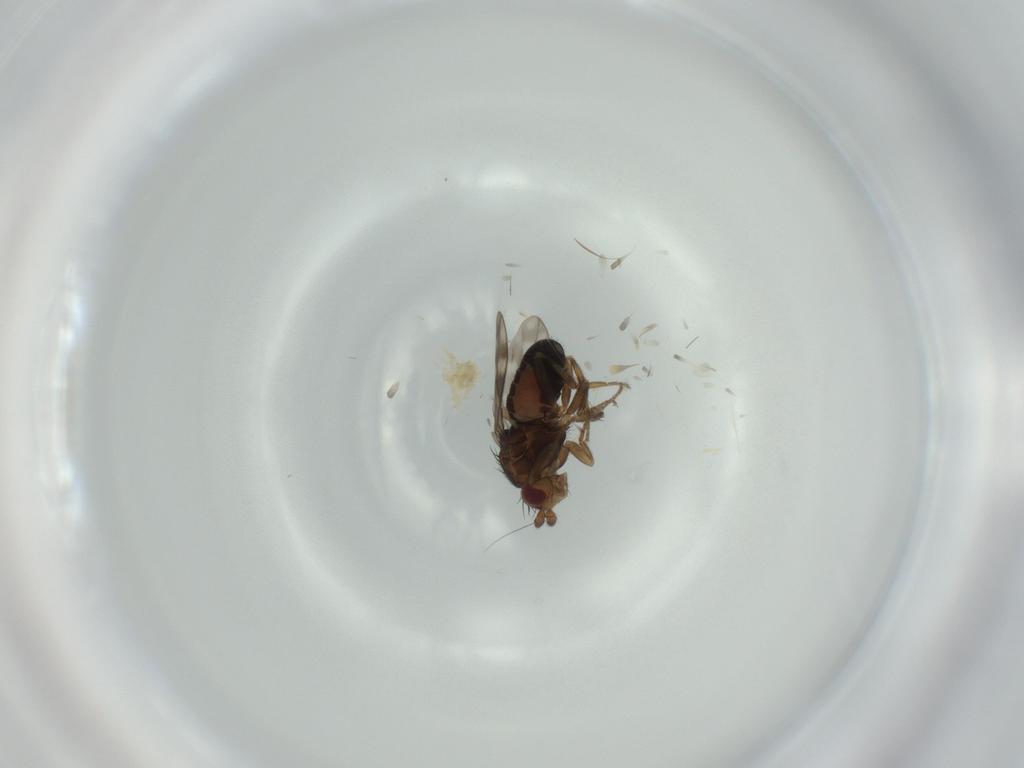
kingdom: Animalia
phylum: Arthropoda
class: Insecta
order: Diptera
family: Sphaeroceridae
